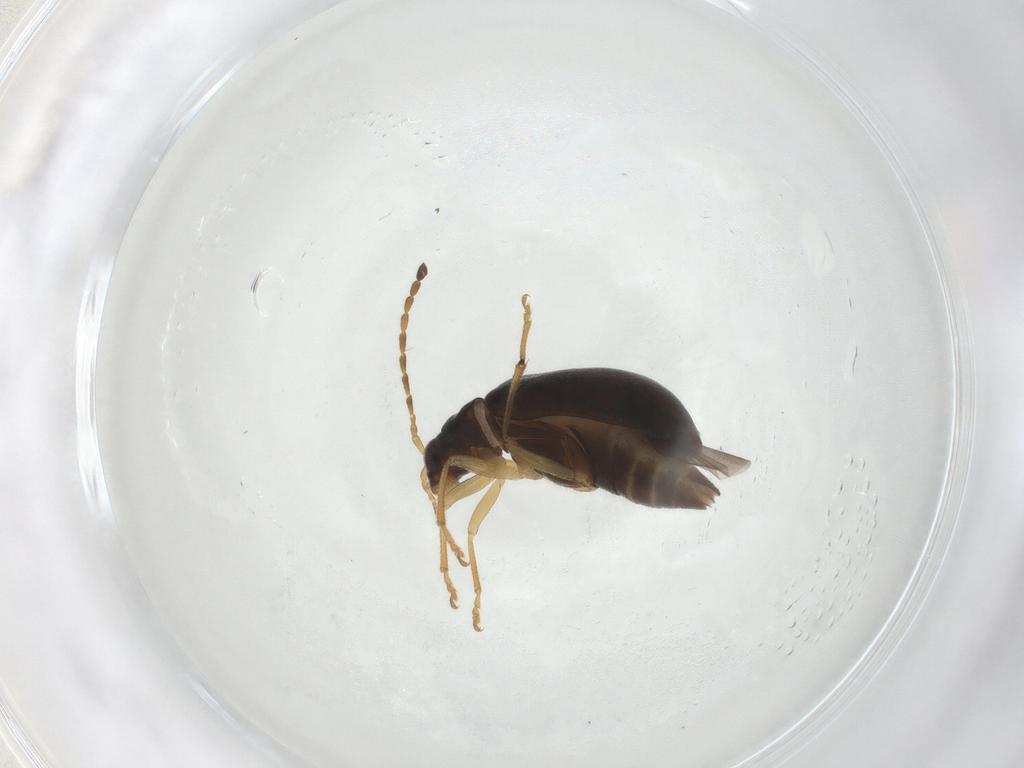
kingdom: Animalia
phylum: Arthropoda
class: Insecta
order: Coleoptera
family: Chrysomelidae
